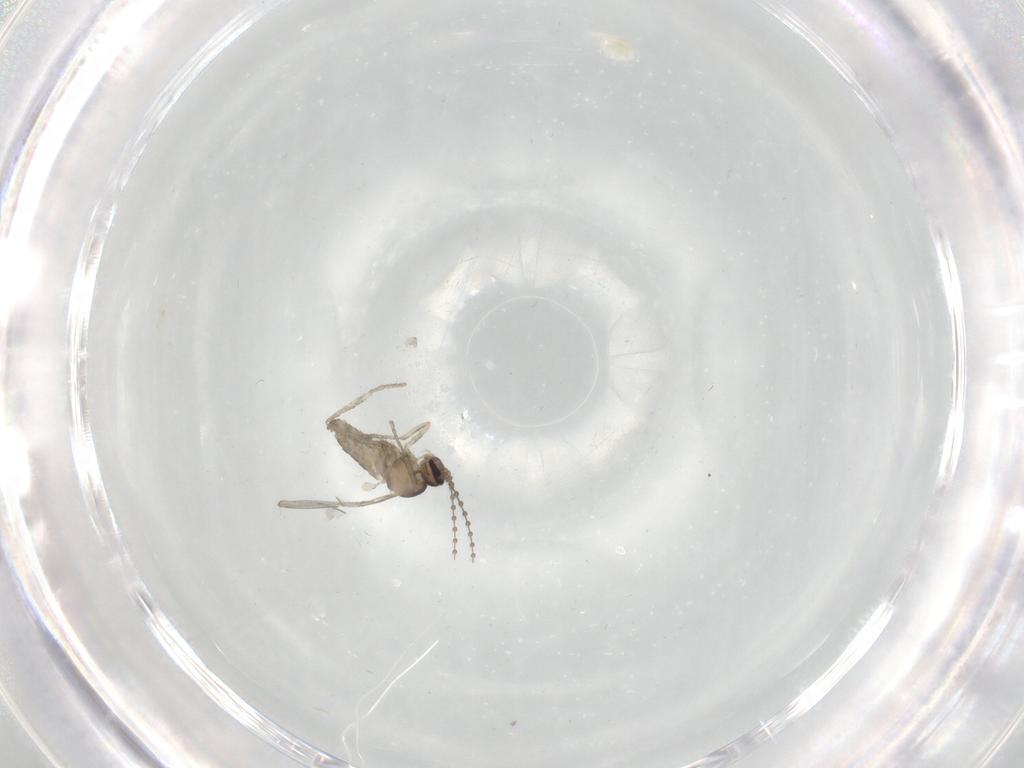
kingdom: Animalia
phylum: Arthropoda
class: Insecta
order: Diptera
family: Cecidomyiidae
